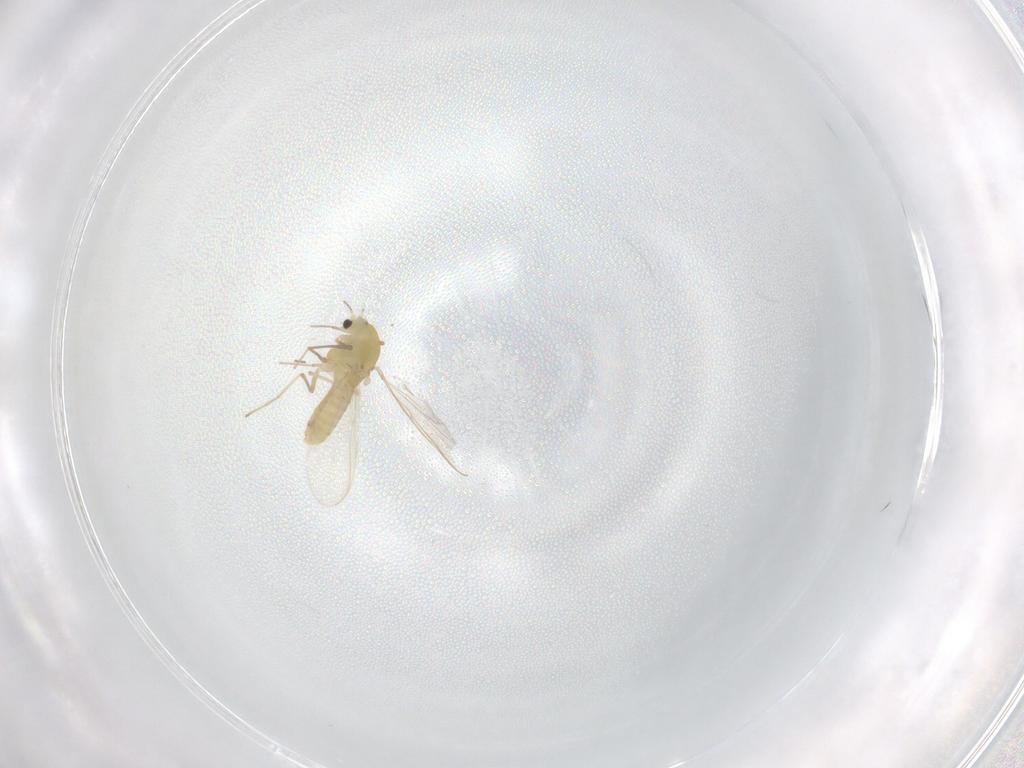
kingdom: Animalia
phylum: Arthropoda
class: Insecta
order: Diptera
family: Chironomidae
